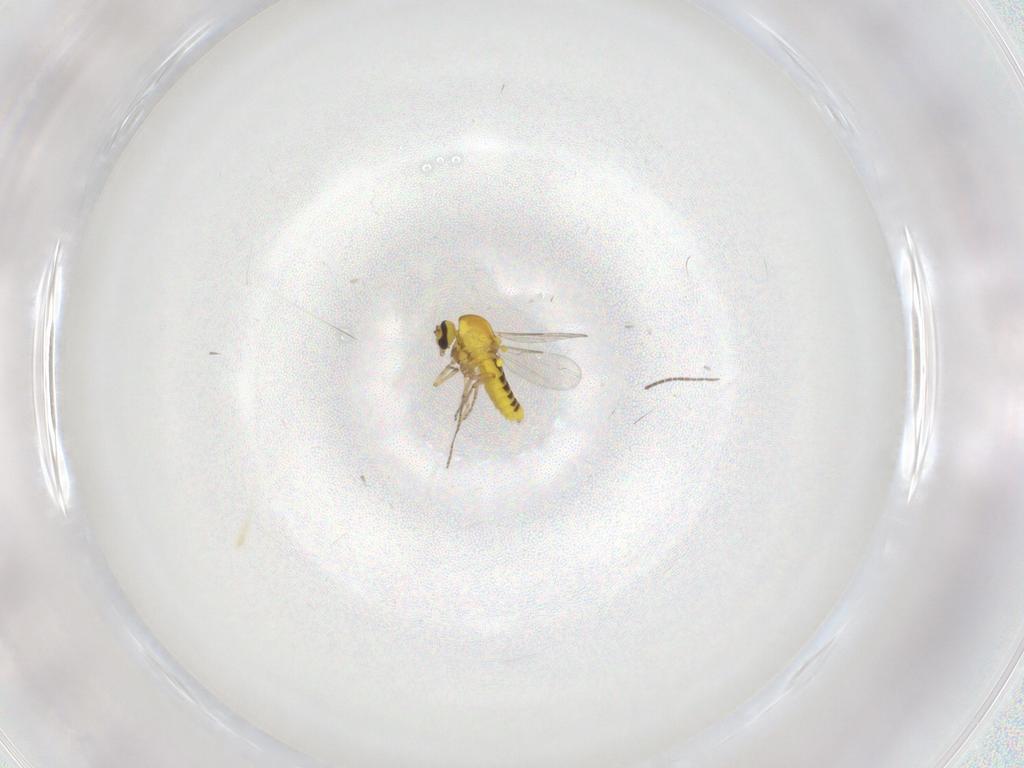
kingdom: Animalia
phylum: Arthropoda
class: Insecta
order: Diptera
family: Ceratopogonidae
